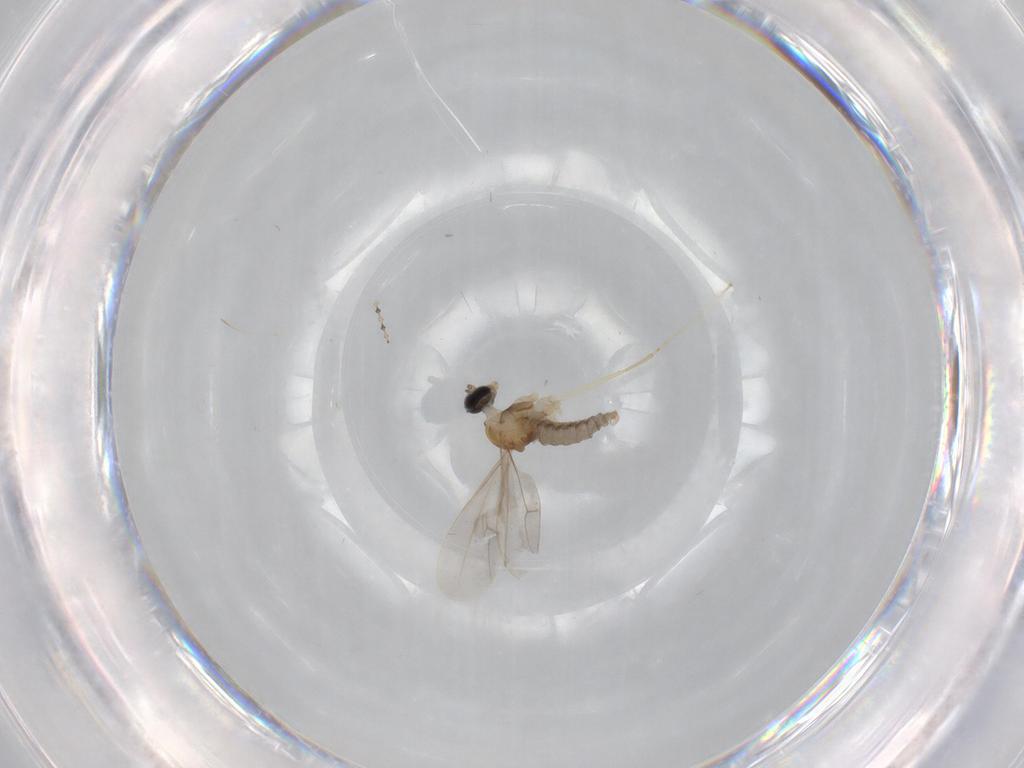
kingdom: Animalia
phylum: Arthropoda
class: Insecta
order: Diptera
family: Cecidomyiidae
